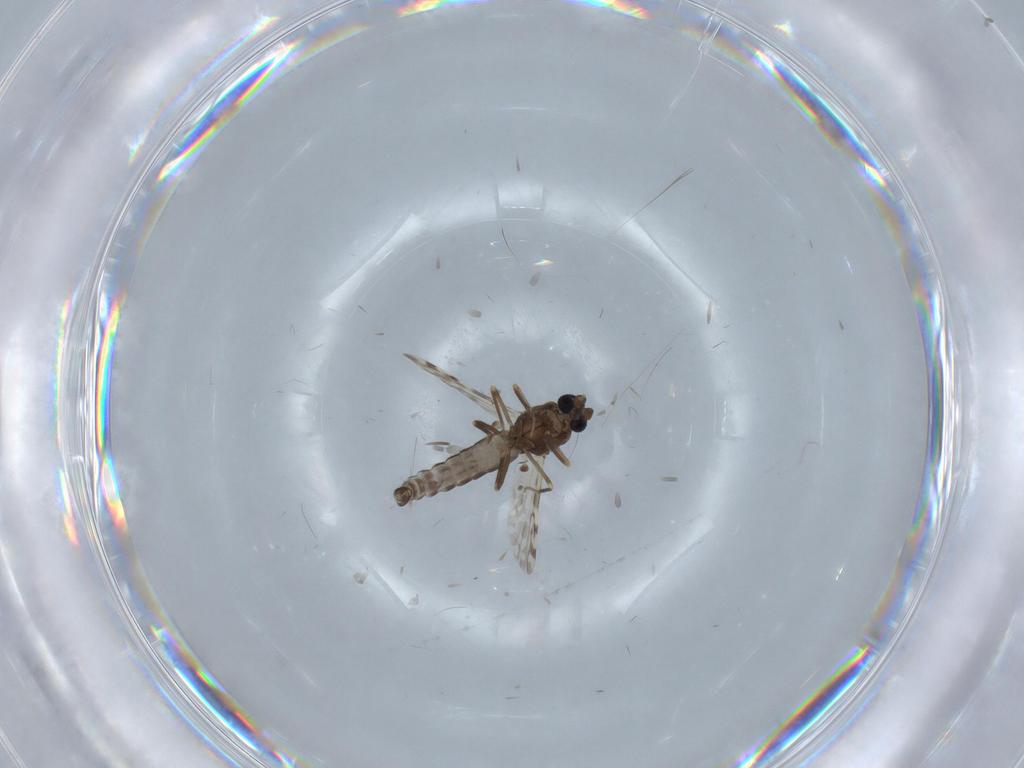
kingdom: Animalia
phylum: Arthropoda
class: Insecta
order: Diptera
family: Ceratopogonidae
